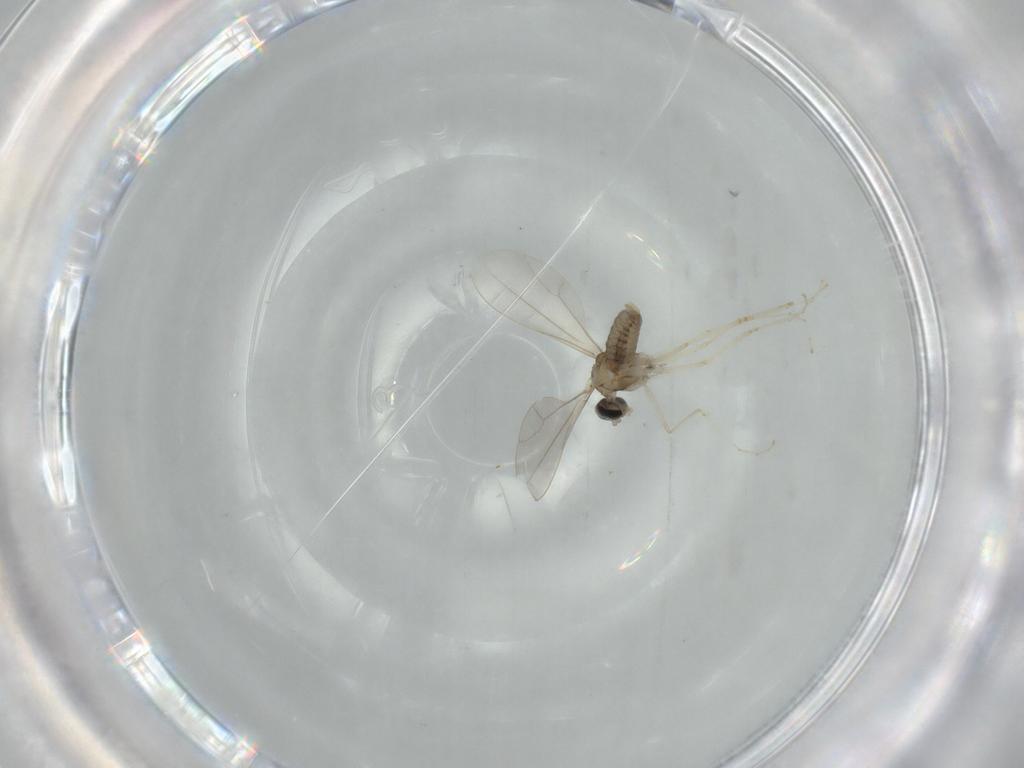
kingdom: Animalia
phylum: Arthropoda
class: Insecta
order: Diptera
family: Cecidomyiidae
